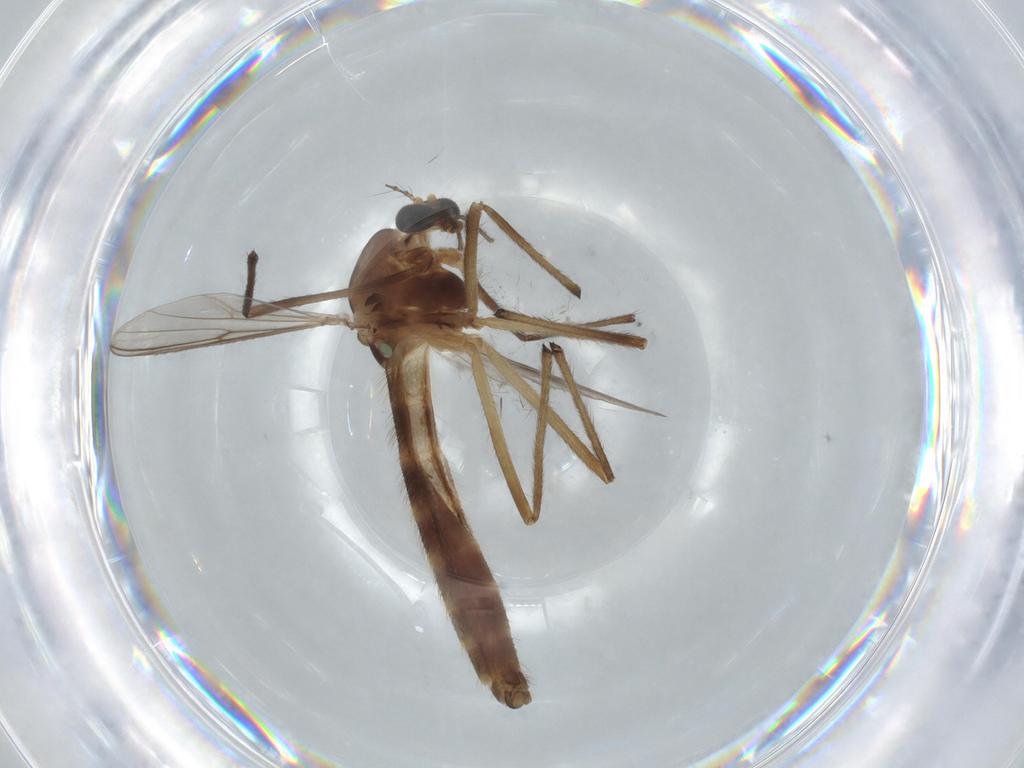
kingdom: Animalia
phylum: Arthropoda
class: Insecta
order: Diptera
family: Chironomidae
